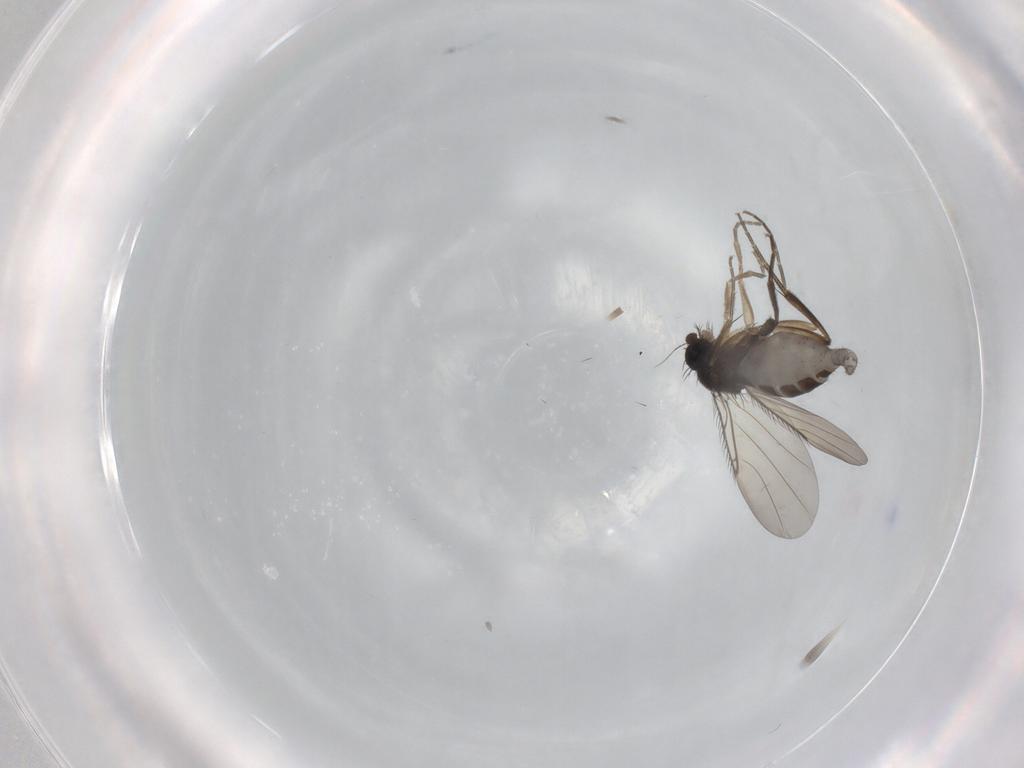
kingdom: Animalia
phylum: Arthropoda
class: Insecta
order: Diptera
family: Phoridae
